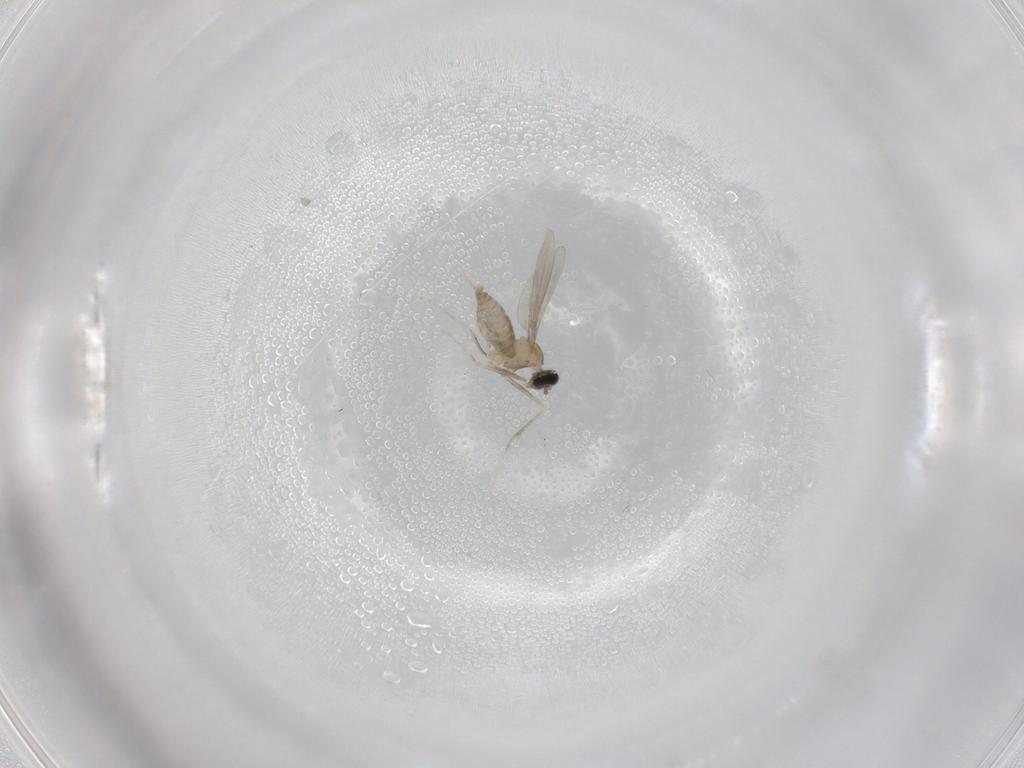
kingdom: Animalia
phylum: Arthropoda
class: Insecta
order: Diptera
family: Cecidomyiidae
